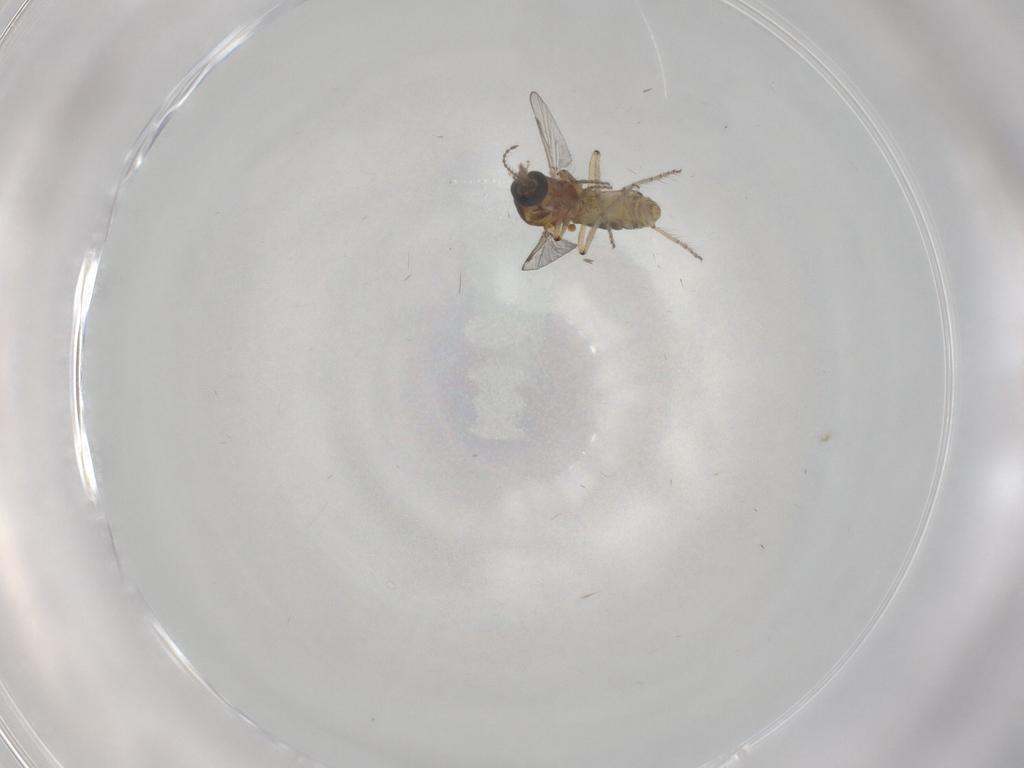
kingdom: Animalia
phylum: Arthropoda
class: Insecta
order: Diptera
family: Ceratopogonidae
